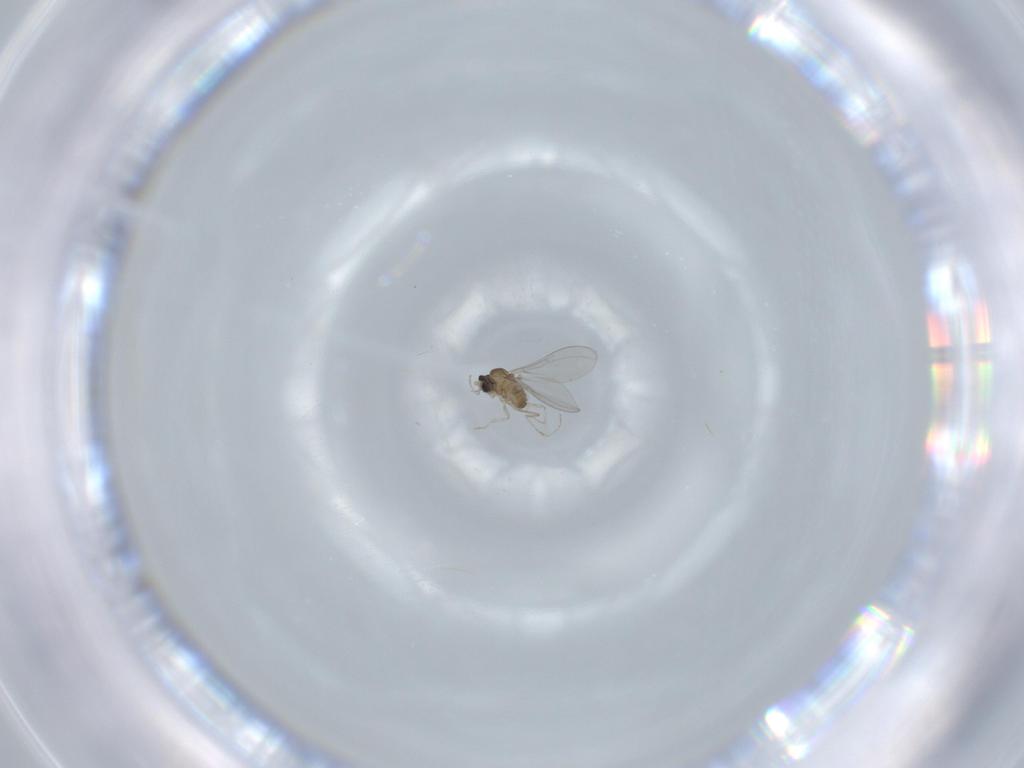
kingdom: Animalia
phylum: Arthropoda
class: Insecta
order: Diptera
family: Cecidomyiidae
